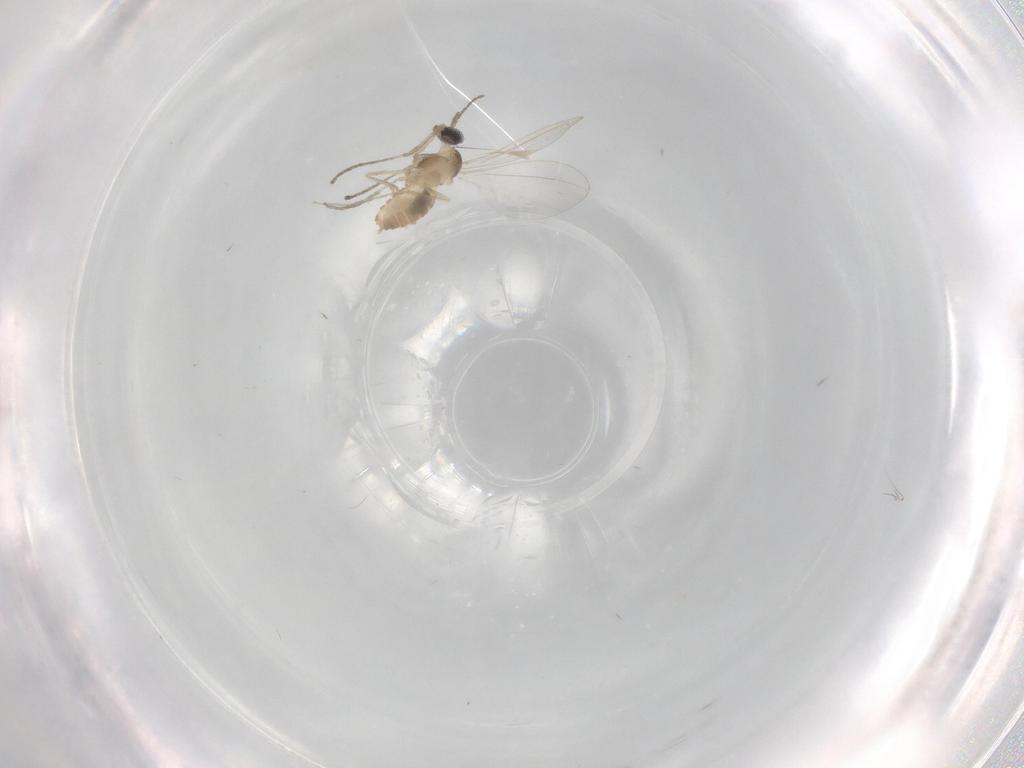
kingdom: Animalia
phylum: Arthropoda
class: Insecta
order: Diptera
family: Cecidomyiidae
